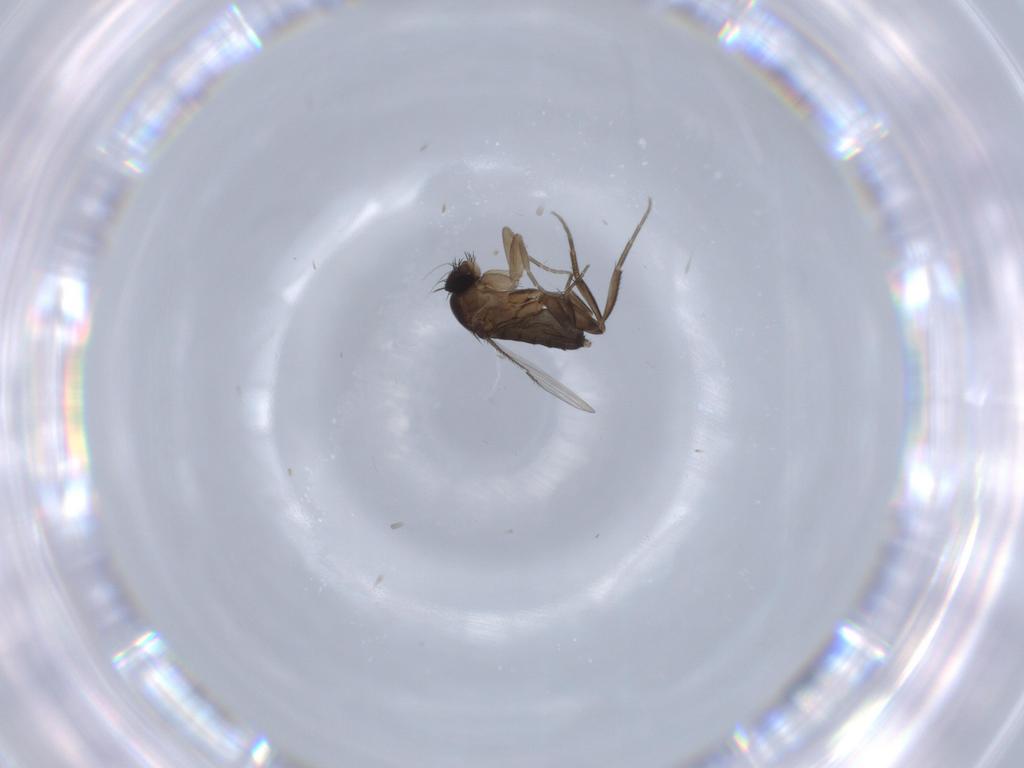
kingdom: Animalia
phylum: Arthropoda
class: Insecta
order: Diptera
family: Phoridae
